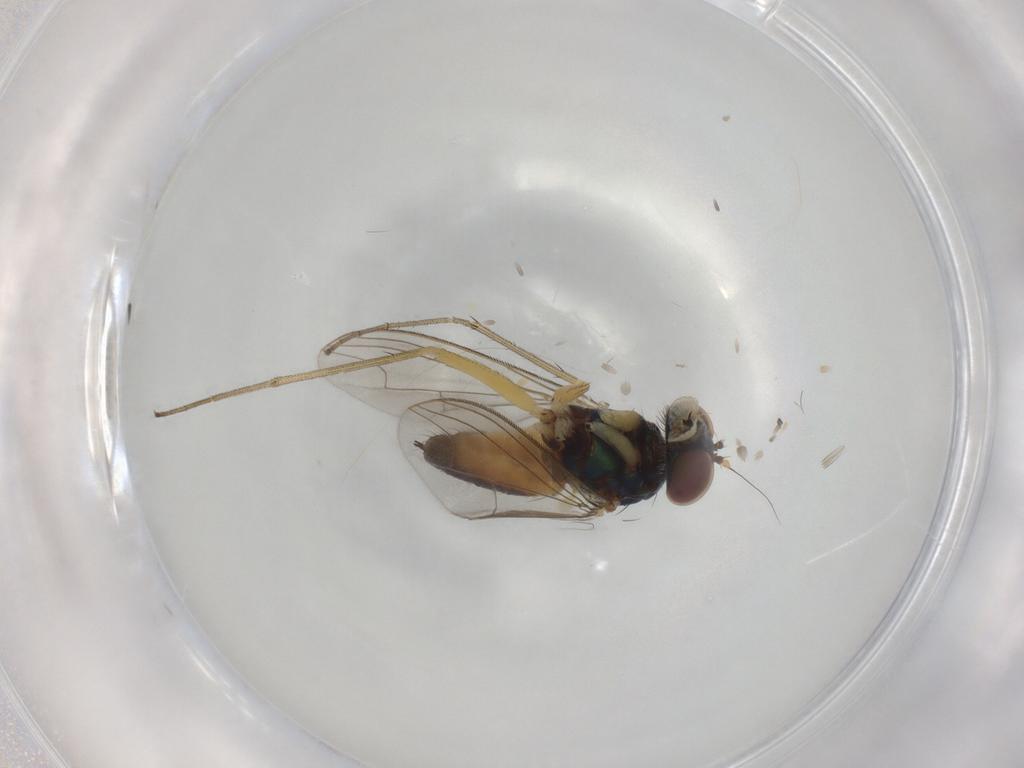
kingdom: Animalia
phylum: Arthropoda
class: Insecta
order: Diptera
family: Dolichopodidae
